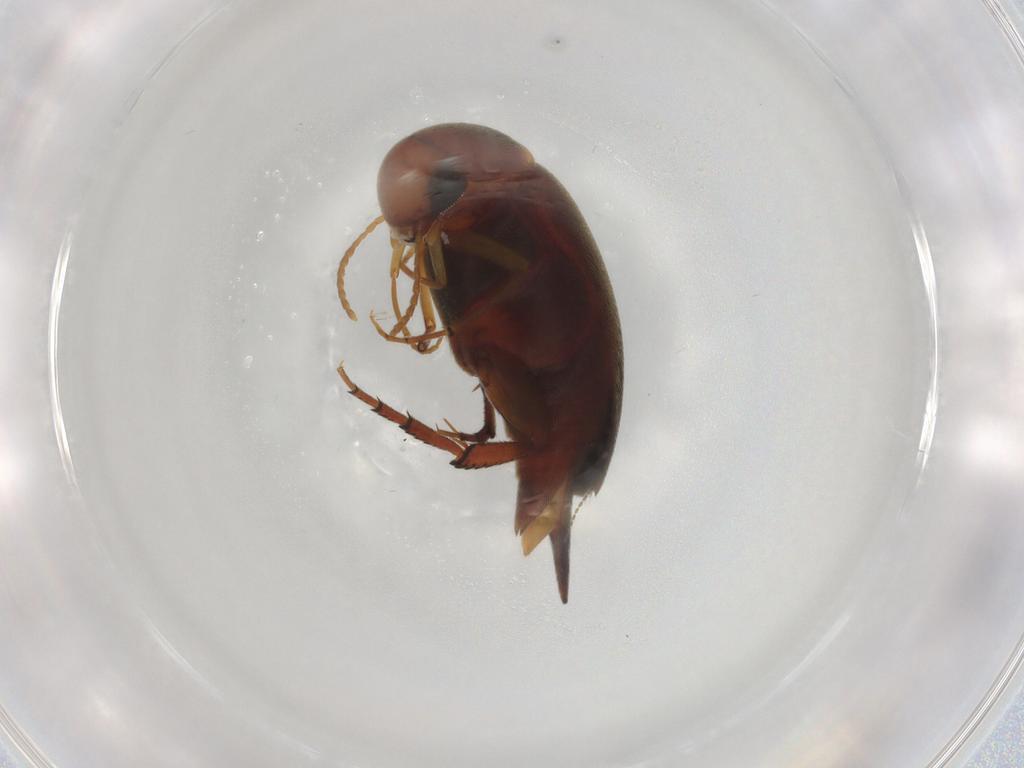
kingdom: Animalia
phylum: Arthropoda
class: Insecta
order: Coleoptera
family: Mordellidae
